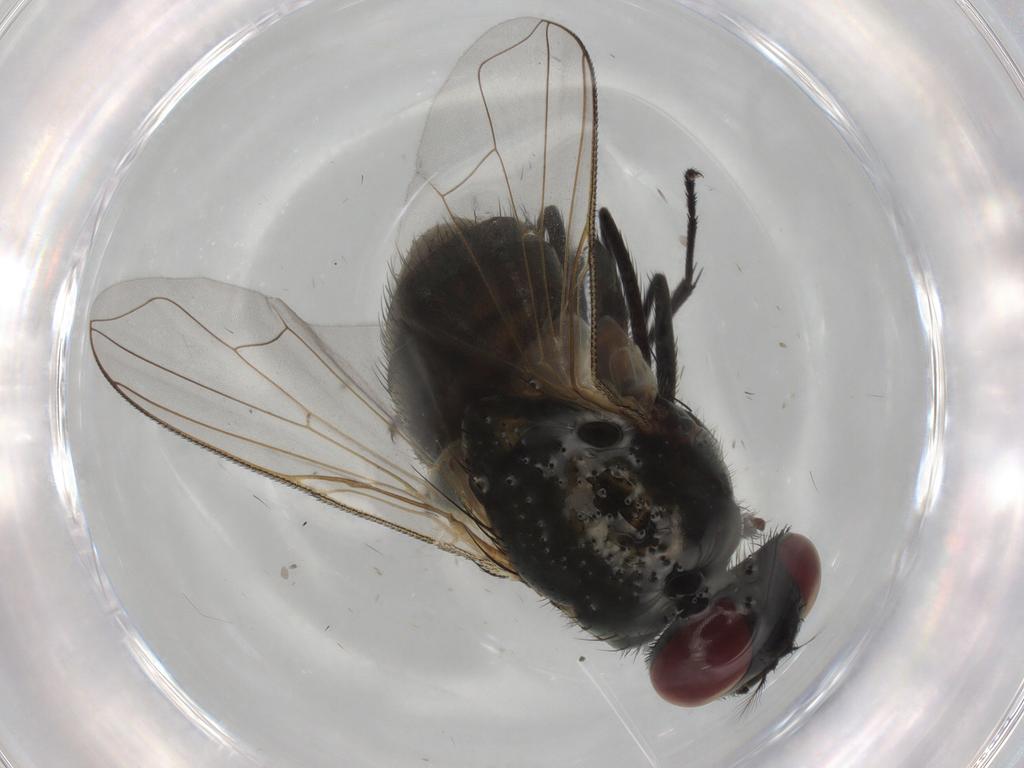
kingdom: Animalia
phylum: Arthropoda
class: Insecta
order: Diptera
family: Muscidae
